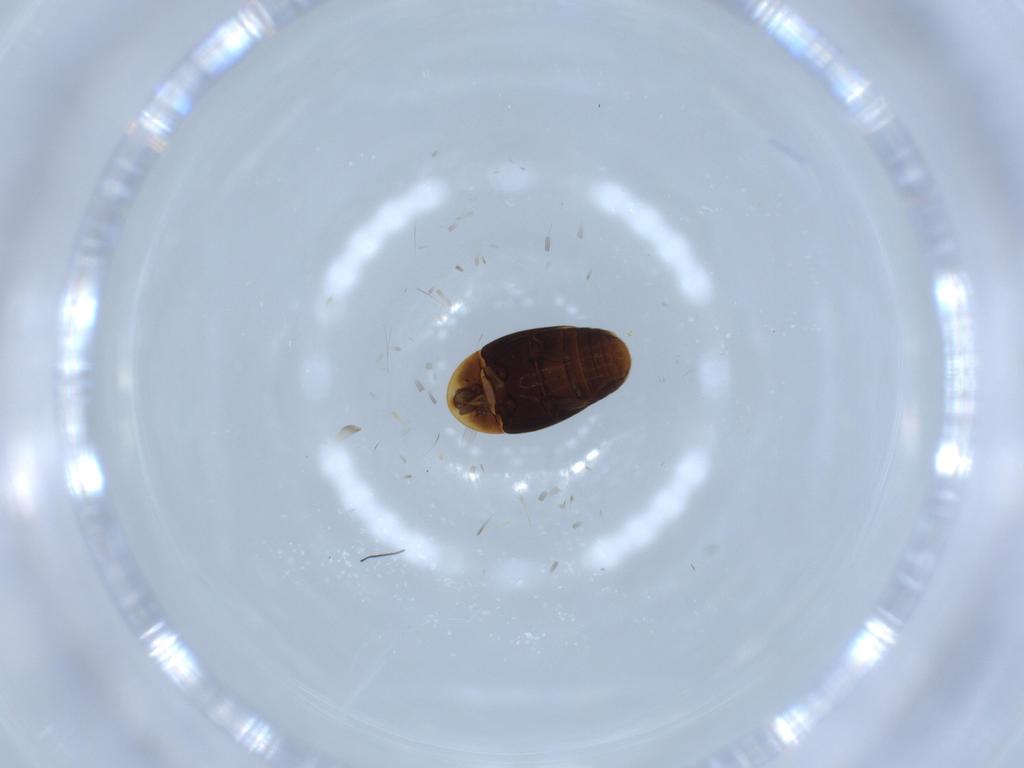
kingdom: Animalia
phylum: Arthropoda
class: Insecta
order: Coleoptera
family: Corylophidae
